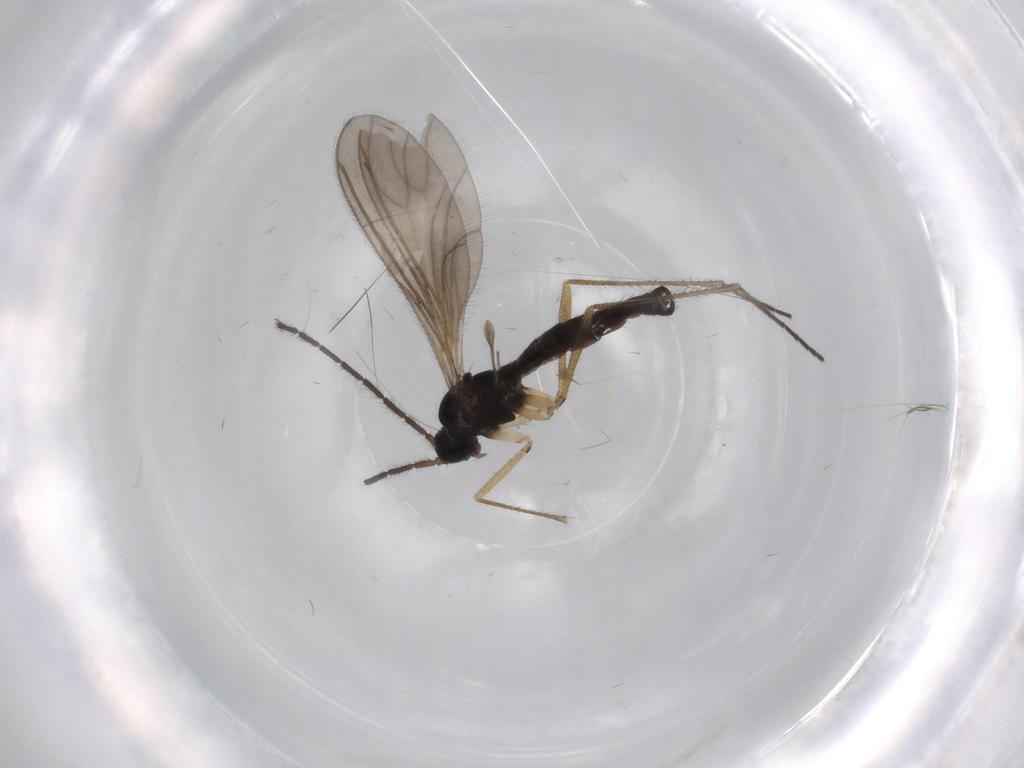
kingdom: Animalia
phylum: Arthropoda
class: Insecta
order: Diptera
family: Sciaridae
